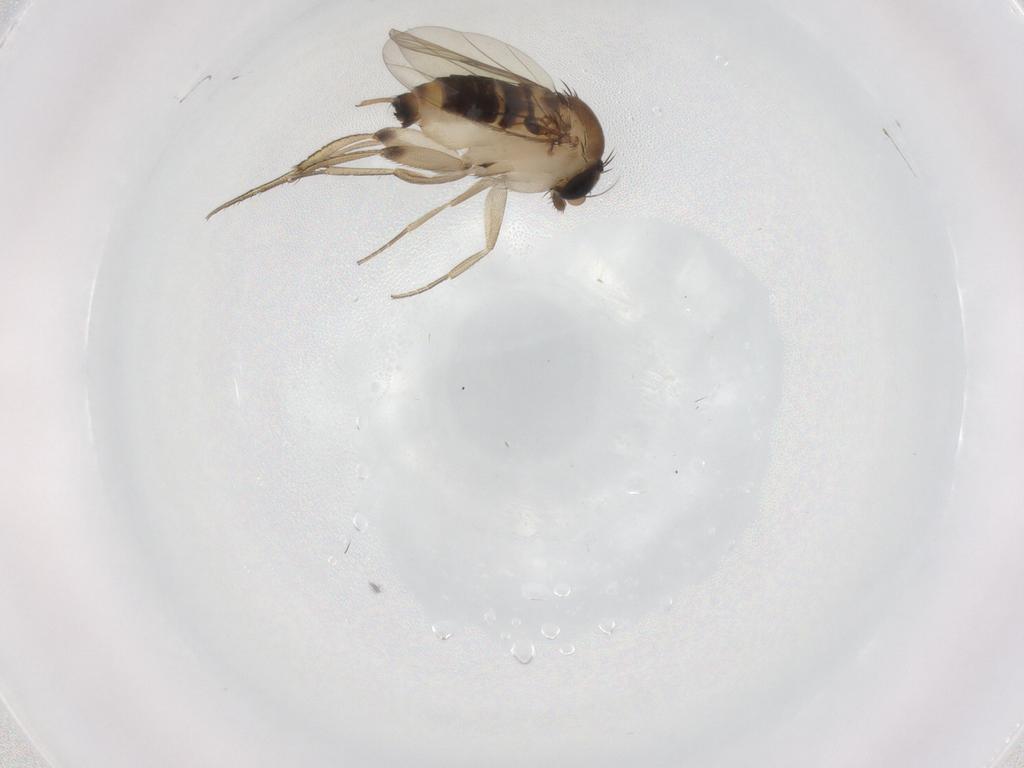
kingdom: Animalia
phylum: Arthropoda
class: Insecta
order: Diptera
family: Phoridae
